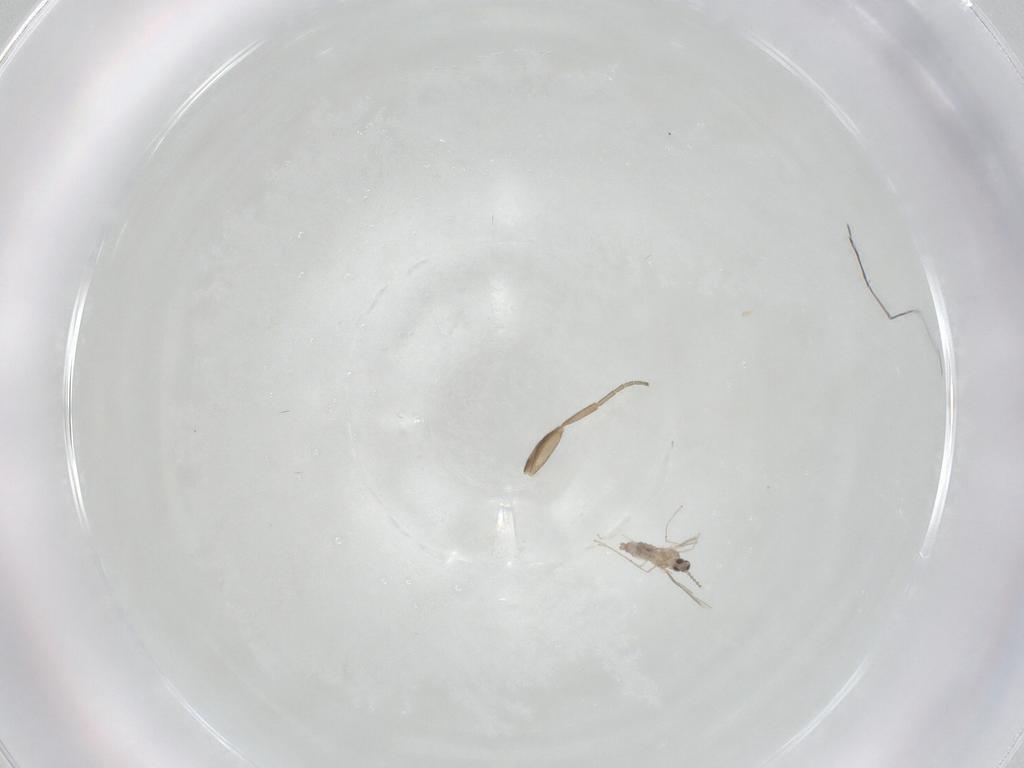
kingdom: Animalia
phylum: Arthropoda
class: Insecta
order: Diptera
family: Cecidomyiidae
